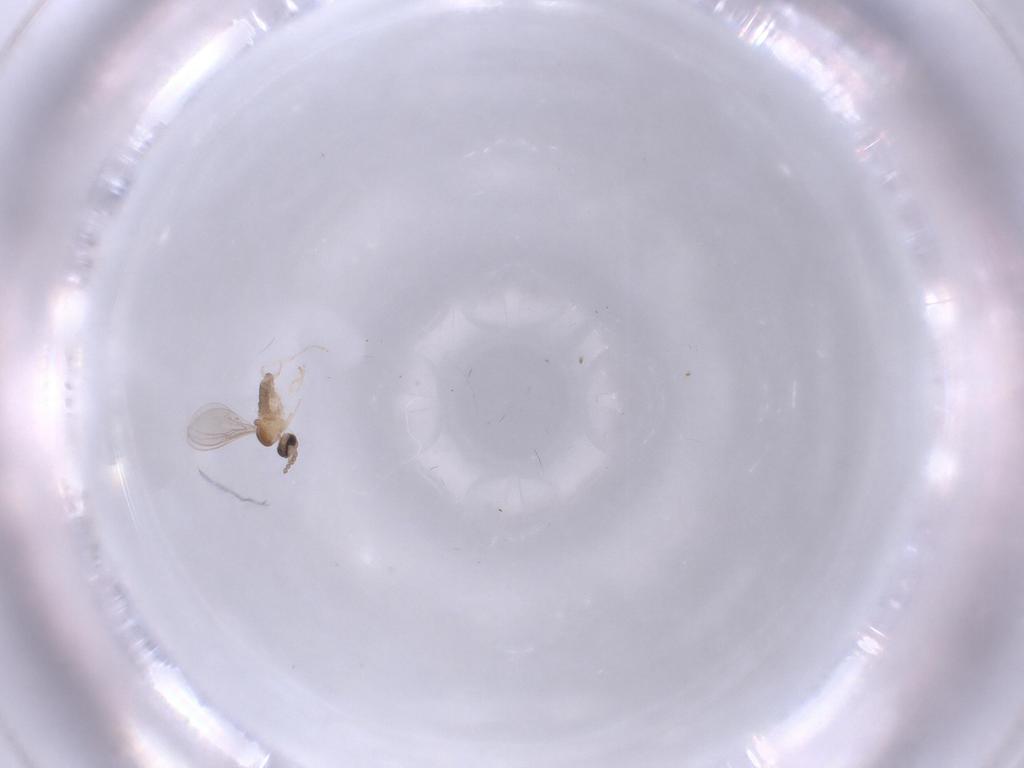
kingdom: Animalia
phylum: Arthropoda
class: Insecta
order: Diptera
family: Cecidomyiidae
